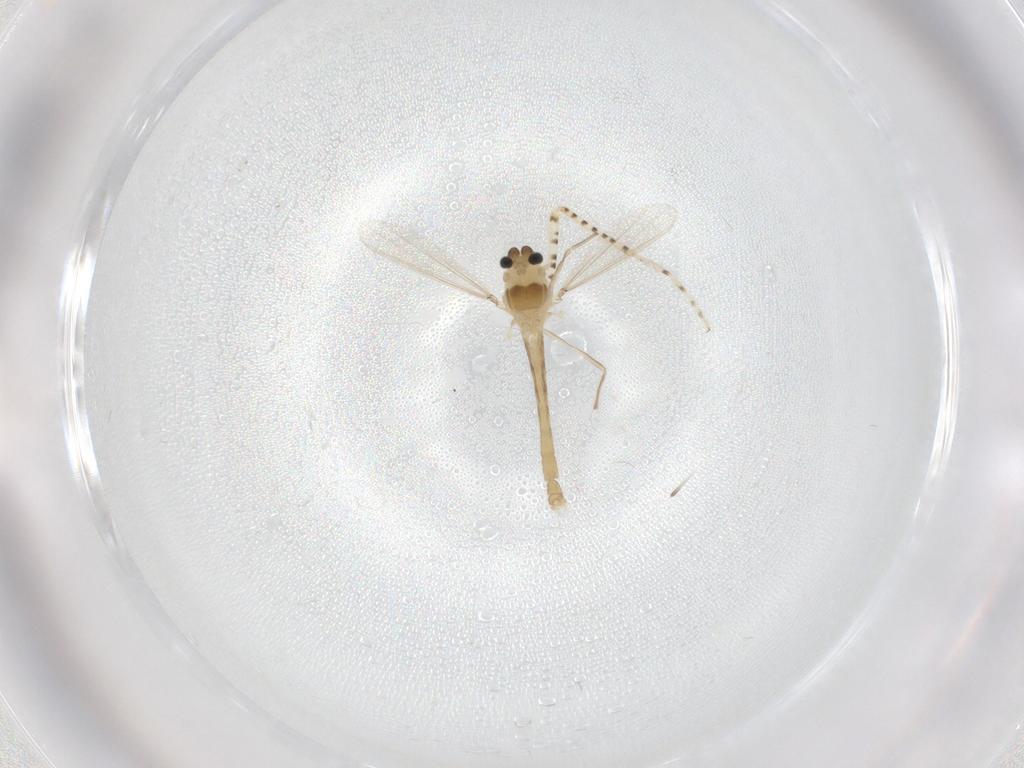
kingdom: Animalia
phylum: Arthropoda
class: Insecta
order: Diptera
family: Chaoboridae
